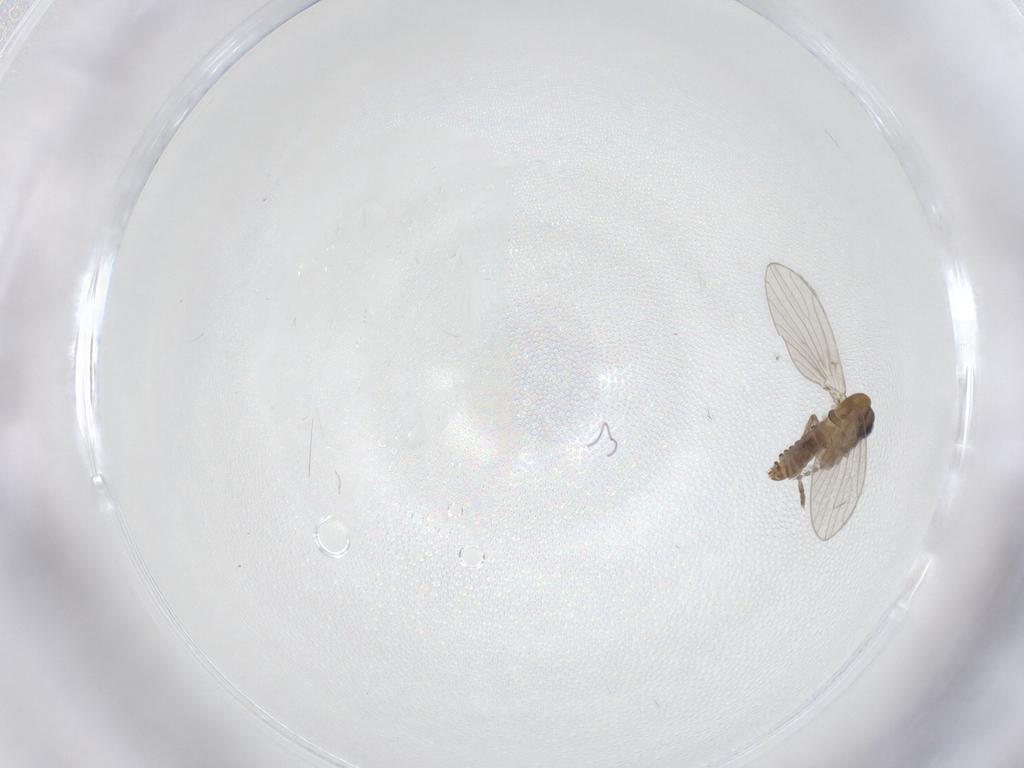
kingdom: Animalia
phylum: Arthropoda
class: Insecta
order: Diptera
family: Psychodidae
